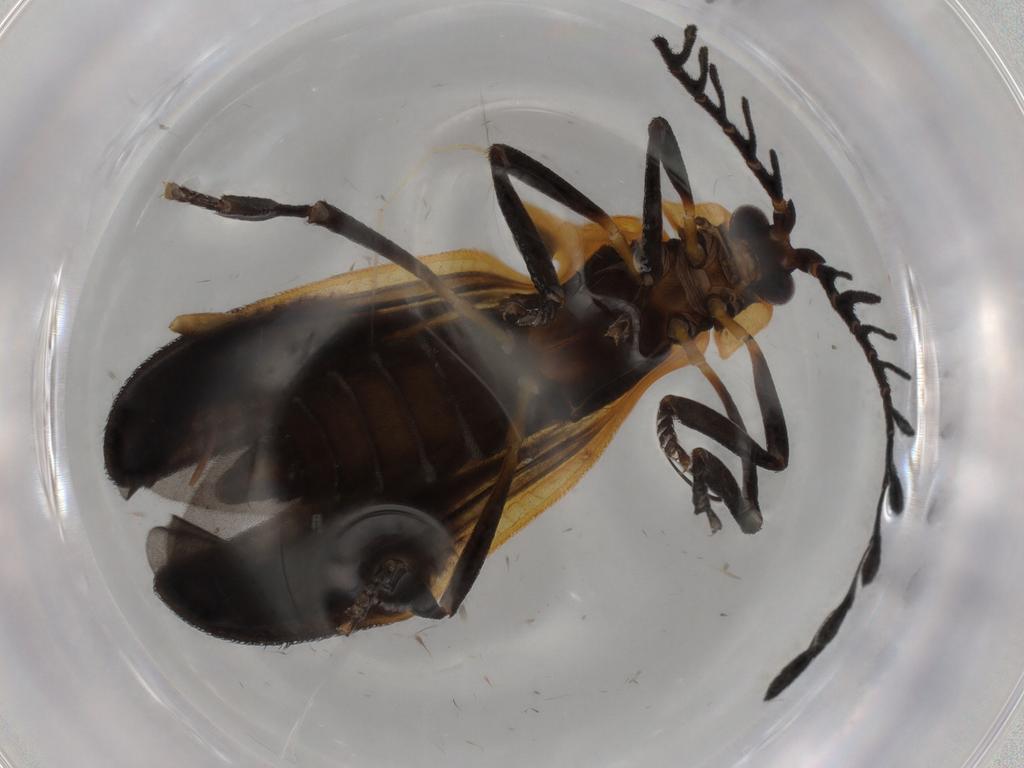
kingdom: Animalia
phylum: Arthropoda
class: Insecta
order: Coleoptera
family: Lycidae
